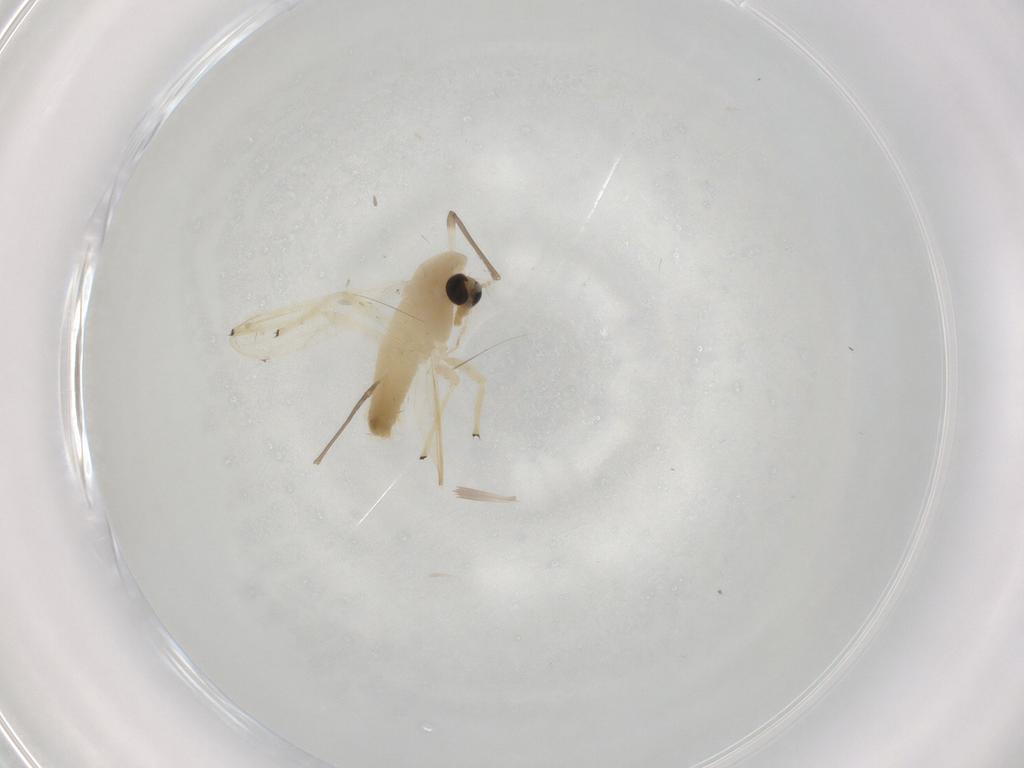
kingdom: Animalia
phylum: Arthropoda
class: Insecta
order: Diptera
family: Chironomidae
